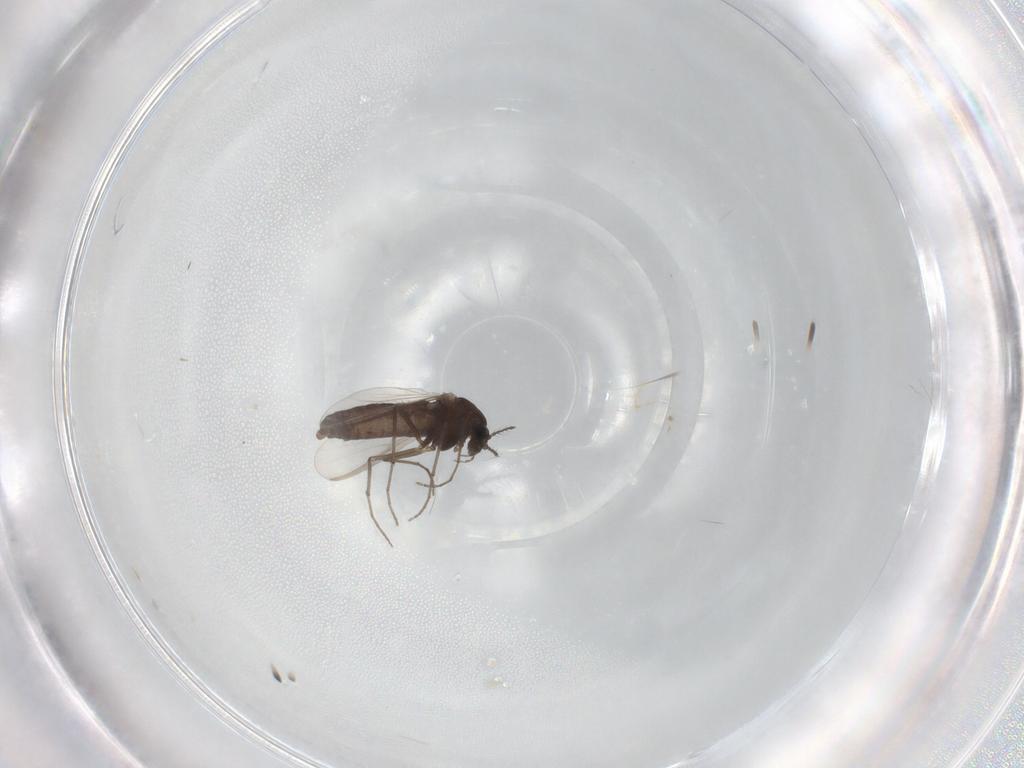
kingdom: Animalia
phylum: Arthropoda
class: Insecta
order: Diptera
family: Chironomidae
